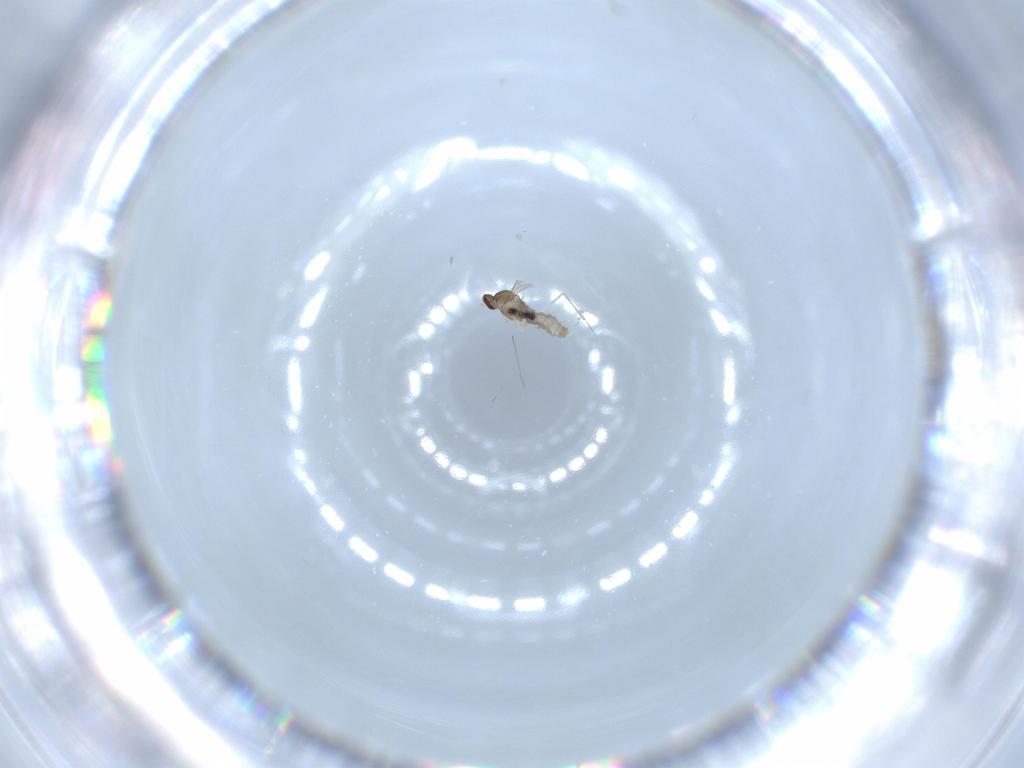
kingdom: Animalia
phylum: Arthropoda
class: Insecta
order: Diptera
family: Cecidomyiidae
